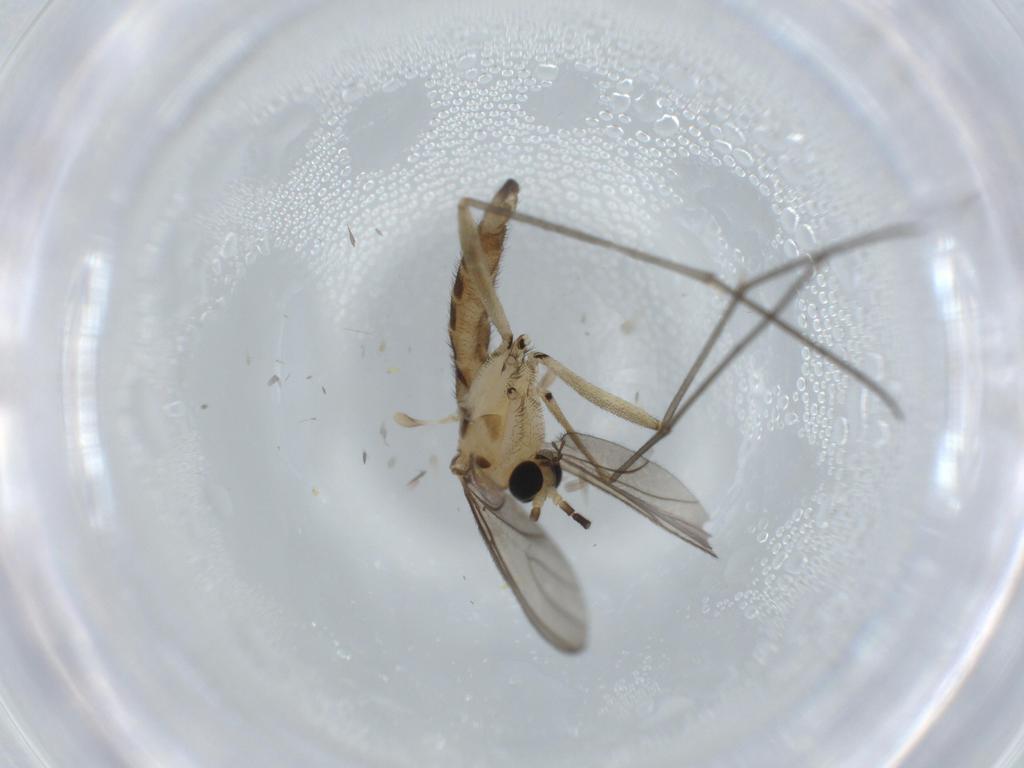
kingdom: Animalia
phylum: Arthropoda
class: Insecta
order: Diptera
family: Sciaridae
